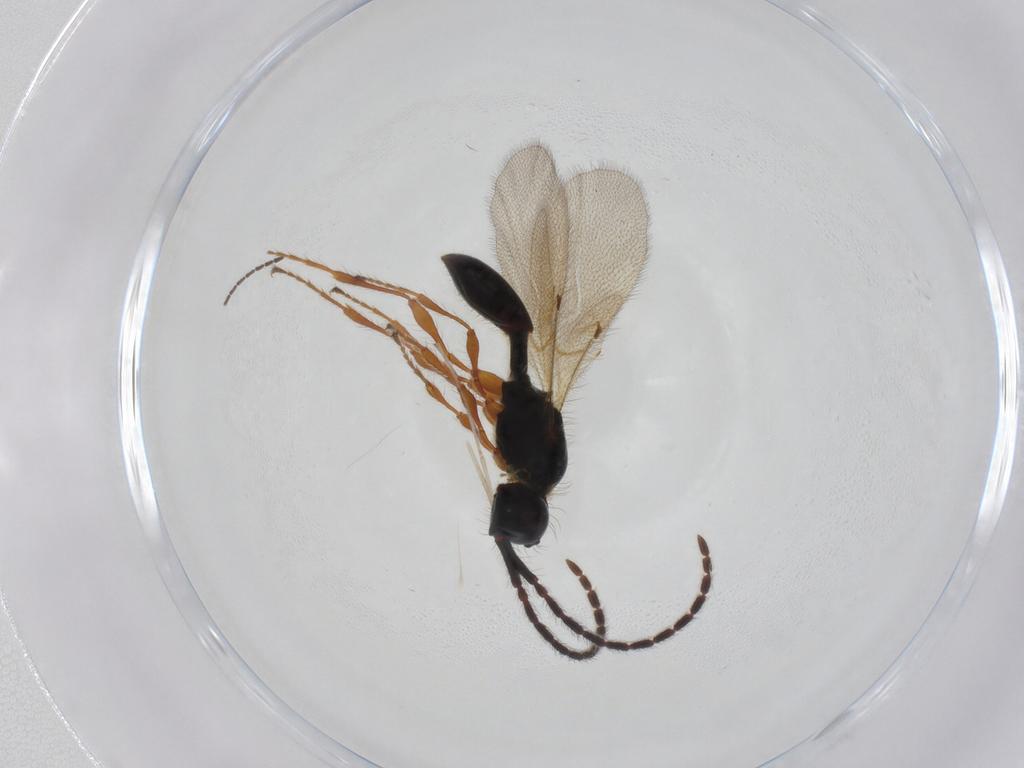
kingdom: Animalia
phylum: Arthropoda
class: Insecta
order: Hymenoptera
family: Diapriidae
